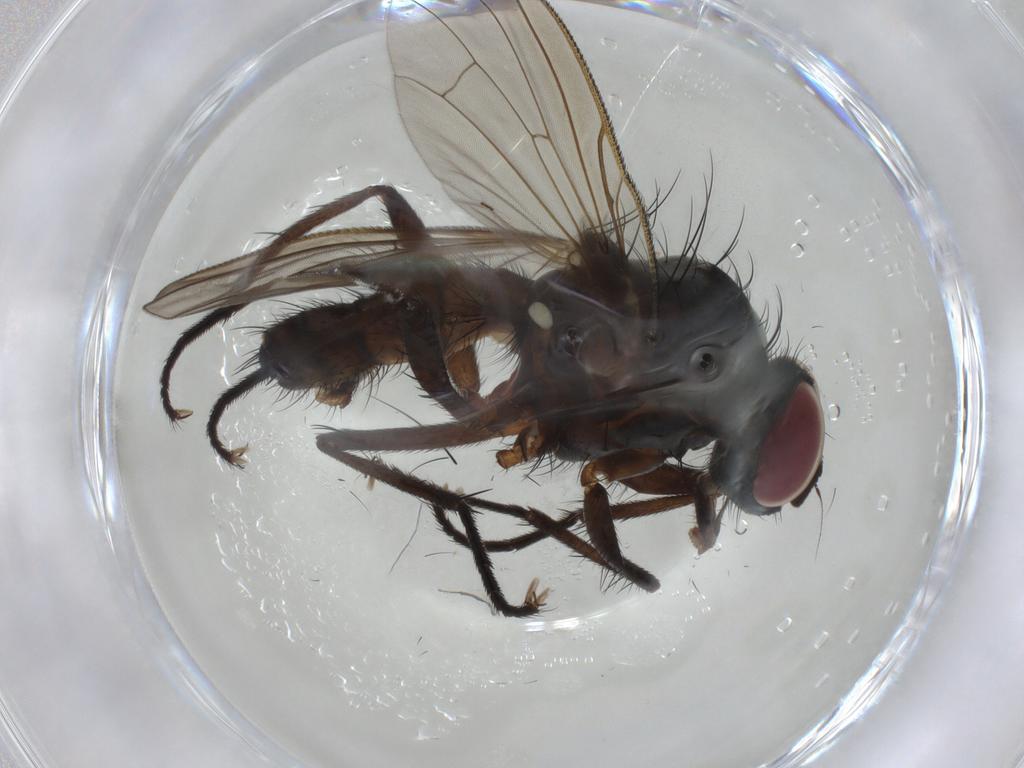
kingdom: Animalia
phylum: Arthropoda
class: Insecta
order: Diptera
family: Anthomyiidae
